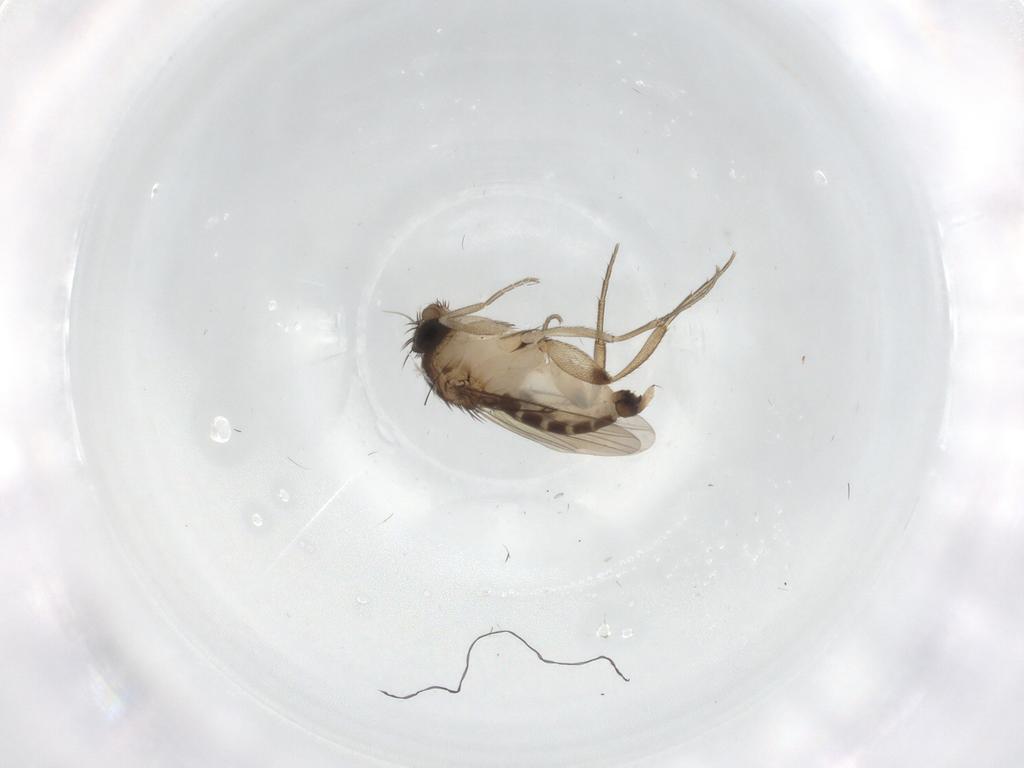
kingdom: Animalia
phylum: Arthropoda
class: Insecta
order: Diptera
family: Phoridae
